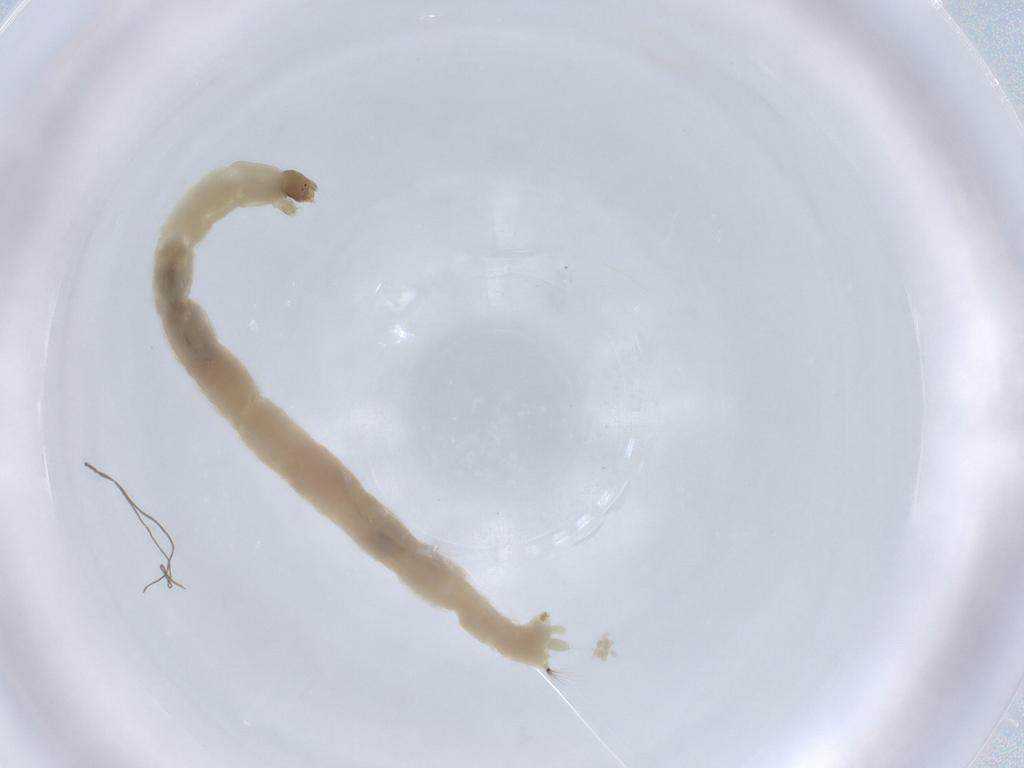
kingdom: Animalia
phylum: Arthropoda
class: Insecta
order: Diptera
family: Chironomidae
